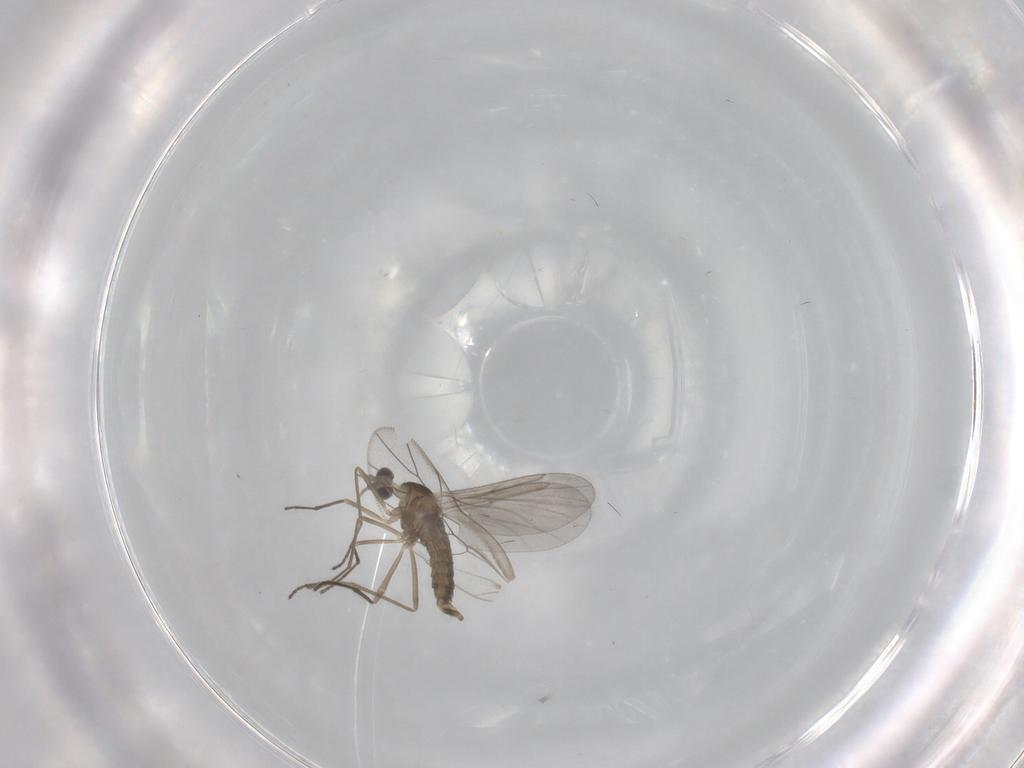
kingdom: Animalia
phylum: Arthropoda
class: Insecta
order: Diptera
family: Cecidomyiidae
